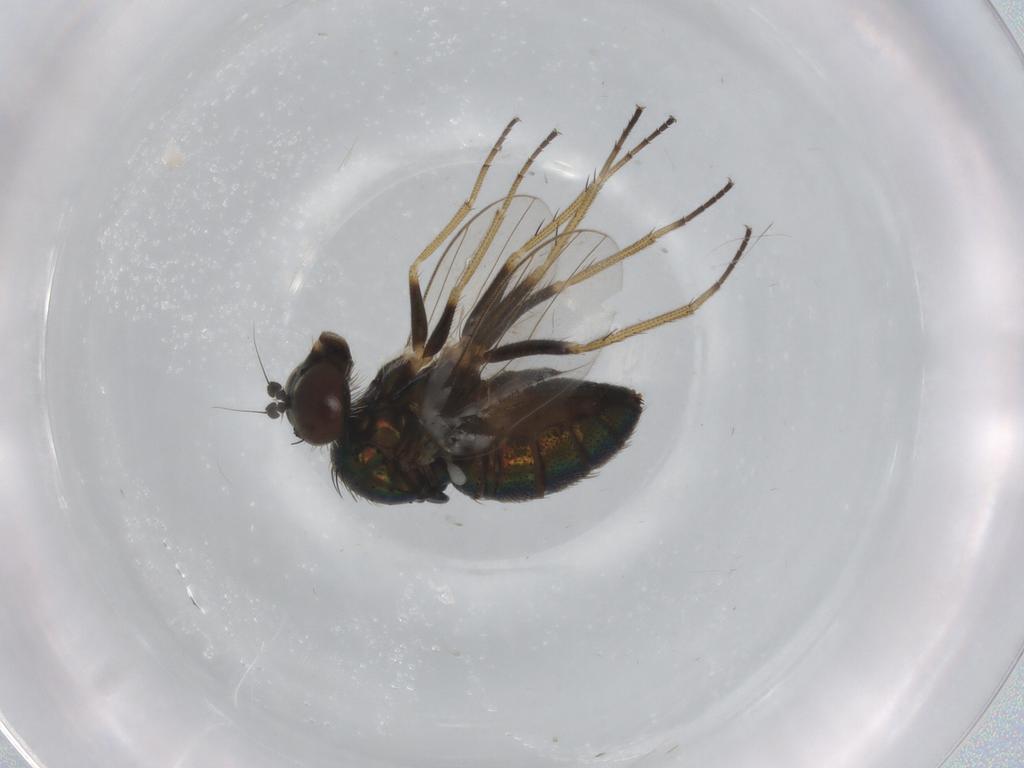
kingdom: Animalia
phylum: Arthropoda
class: Insecta
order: Diptera
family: Dolichopodidae
